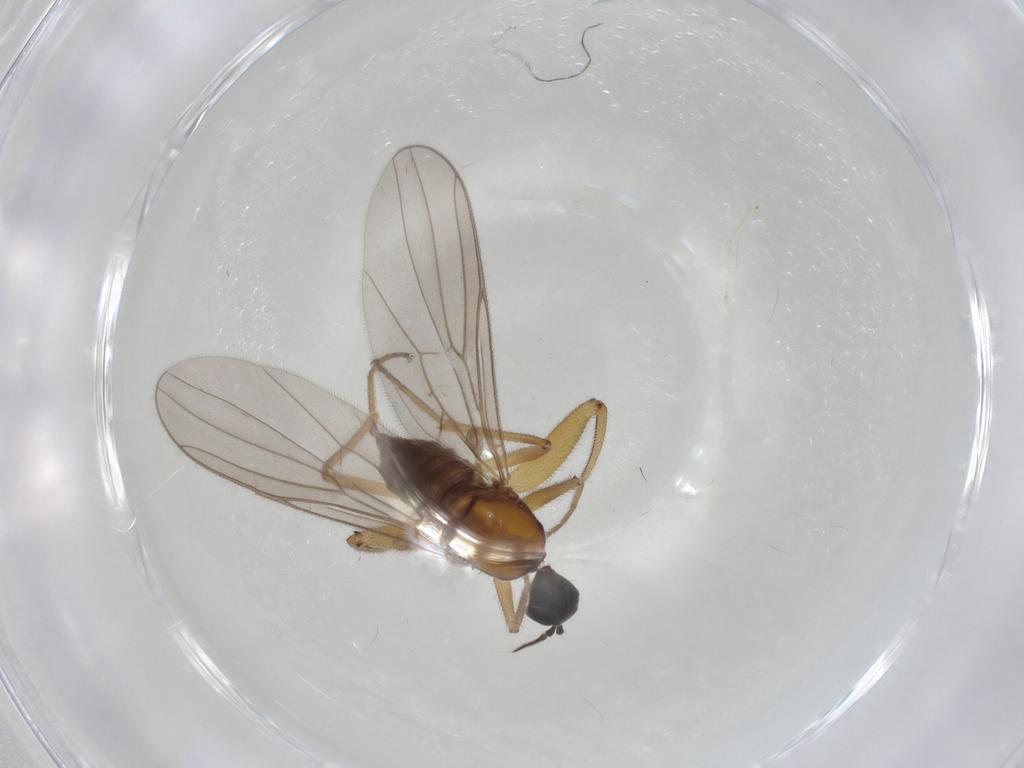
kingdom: Animalia
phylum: Arthropoda
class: Insecta
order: Diptera
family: Hybotidae
